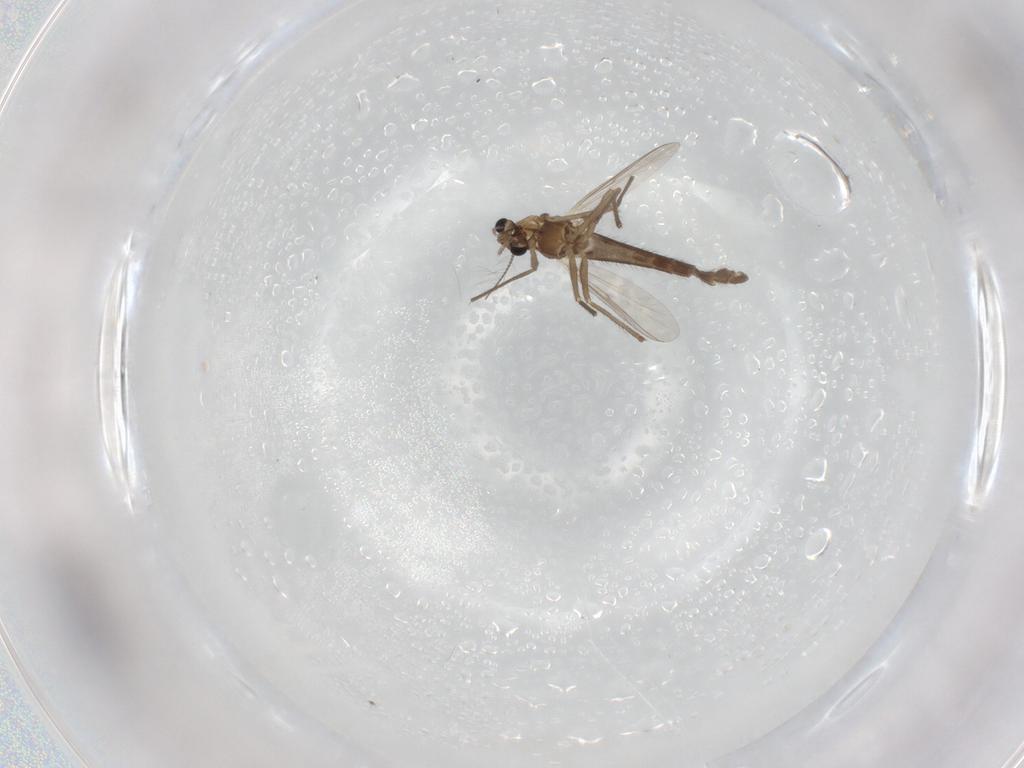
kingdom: Animalia
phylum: Arthropoda
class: Insecta
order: Diptera
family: Chironomidae
